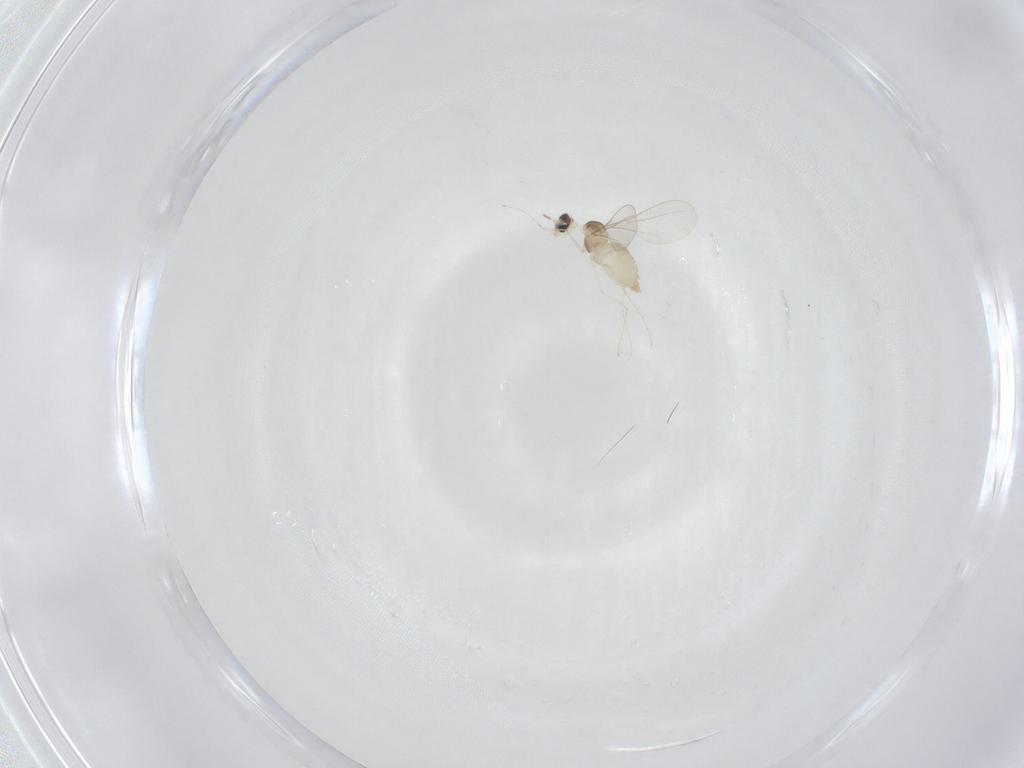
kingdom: Animalia
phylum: Arthropoda
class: Insecta
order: Diptera
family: Cecidomyiidae
